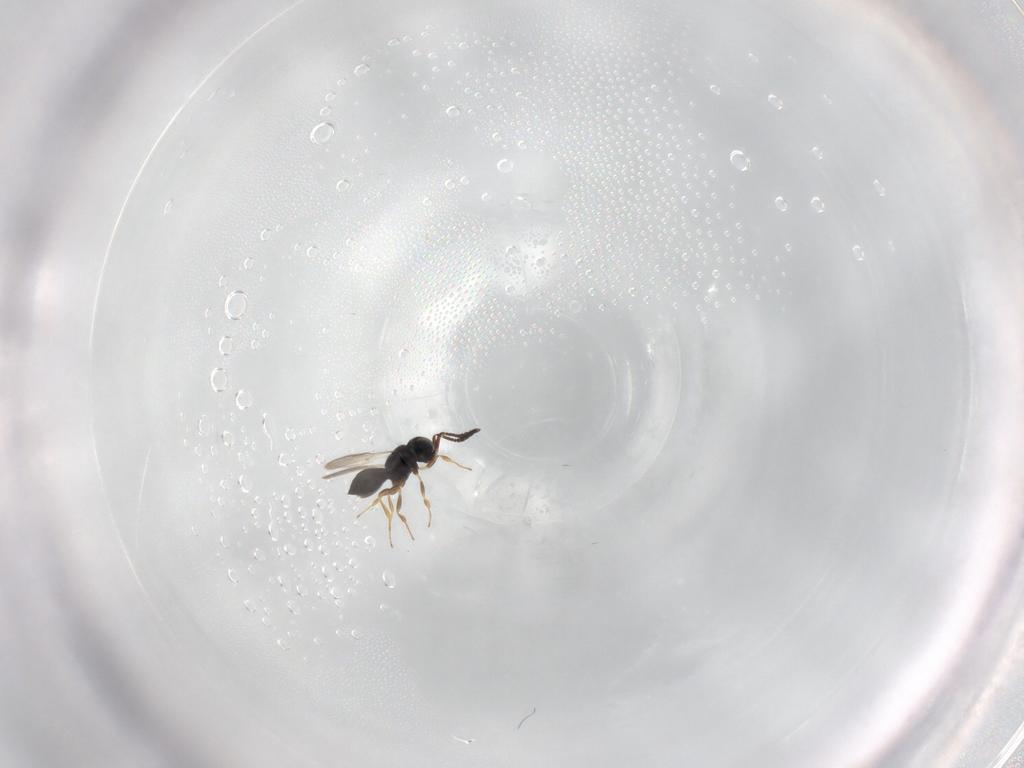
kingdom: Animalia
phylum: Arthropoda
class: Insecta
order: Hymenoptera
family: Scelionidae
